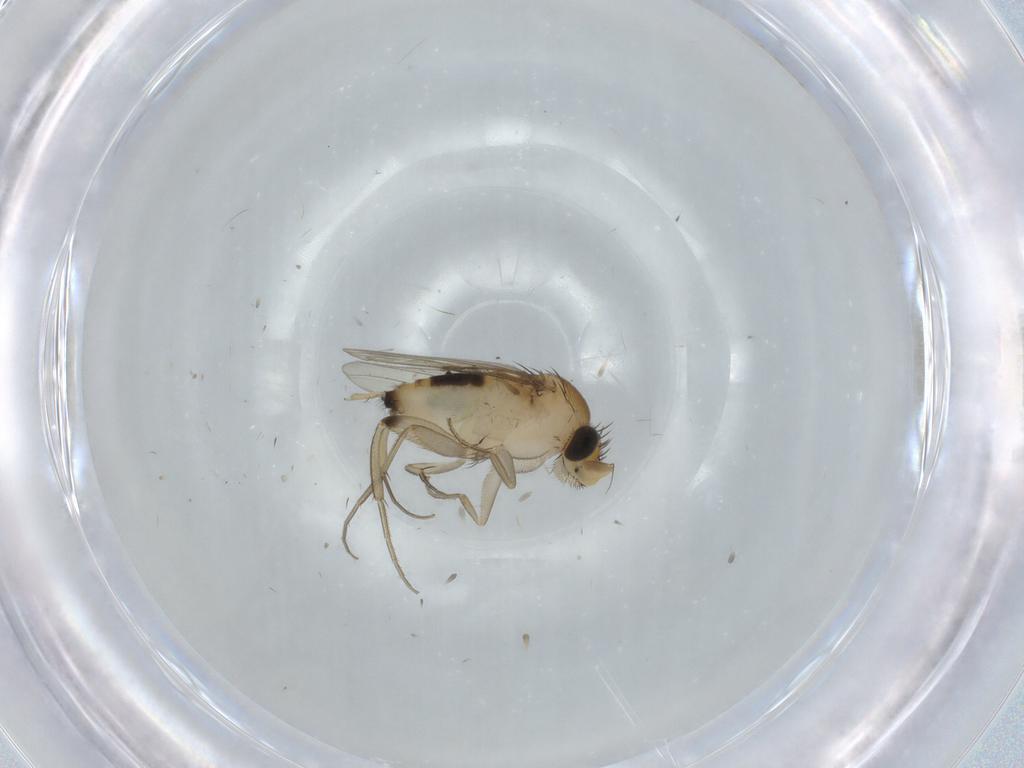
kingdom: Animalia
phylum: Arthropoda
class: Insecta
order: Diptera
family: Phoridae
